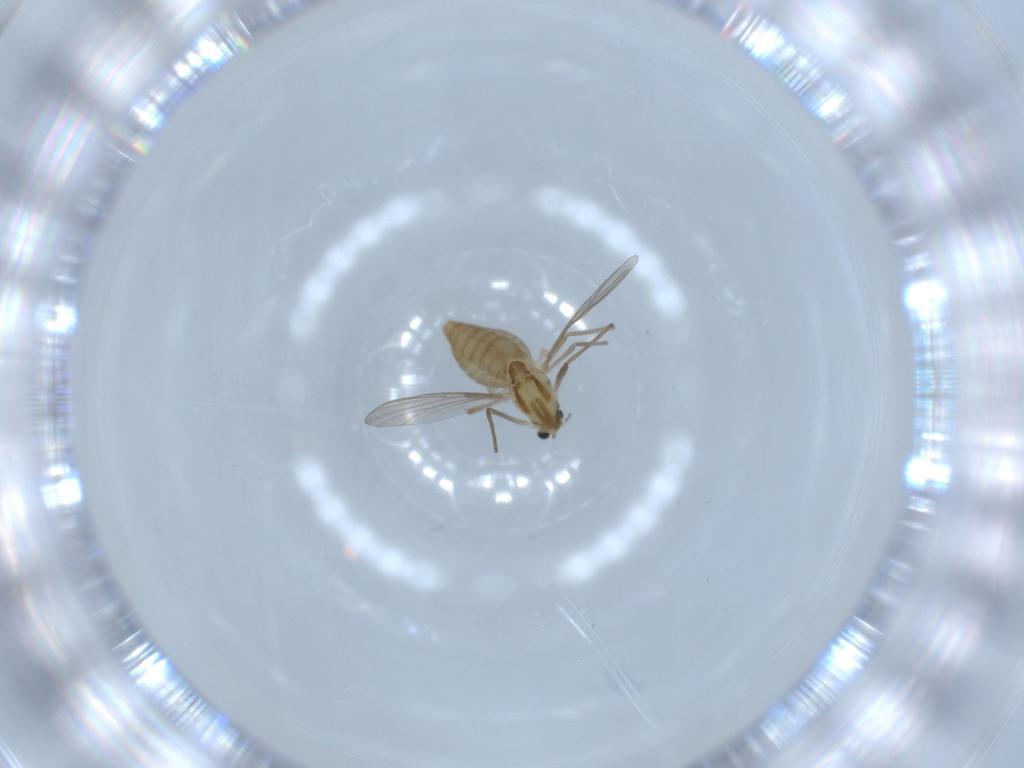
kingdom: Animalia
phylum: Arthropoda
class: Insecta
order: Diptera
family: Chironomidae
